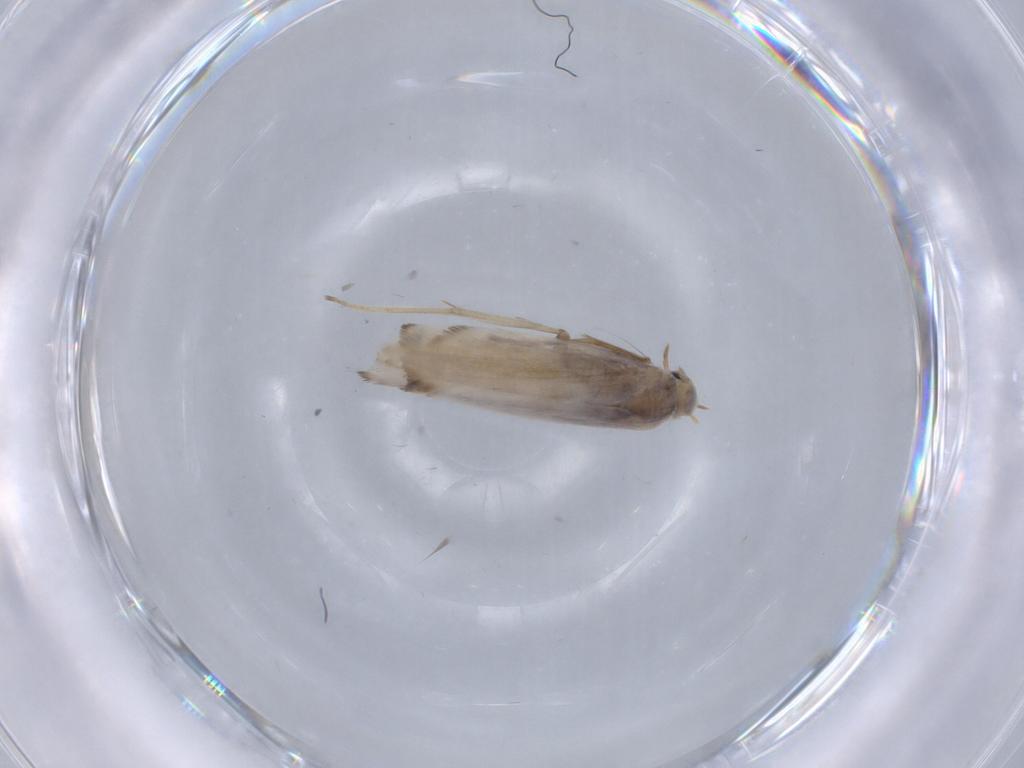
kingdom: Animalia
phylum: Arthropoda
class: Insecta
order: Lepidoptera
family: Gracillariidae
